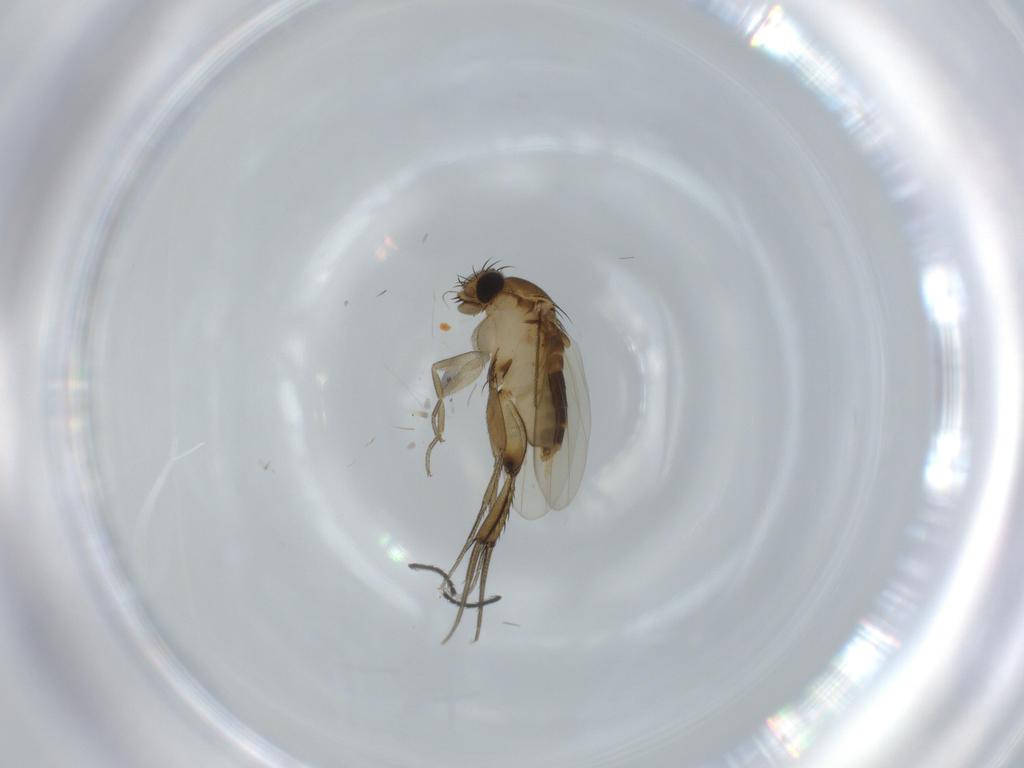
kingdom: Animalia
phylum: Arthropoda
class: Insecta
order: Diptera
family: Phoridae
